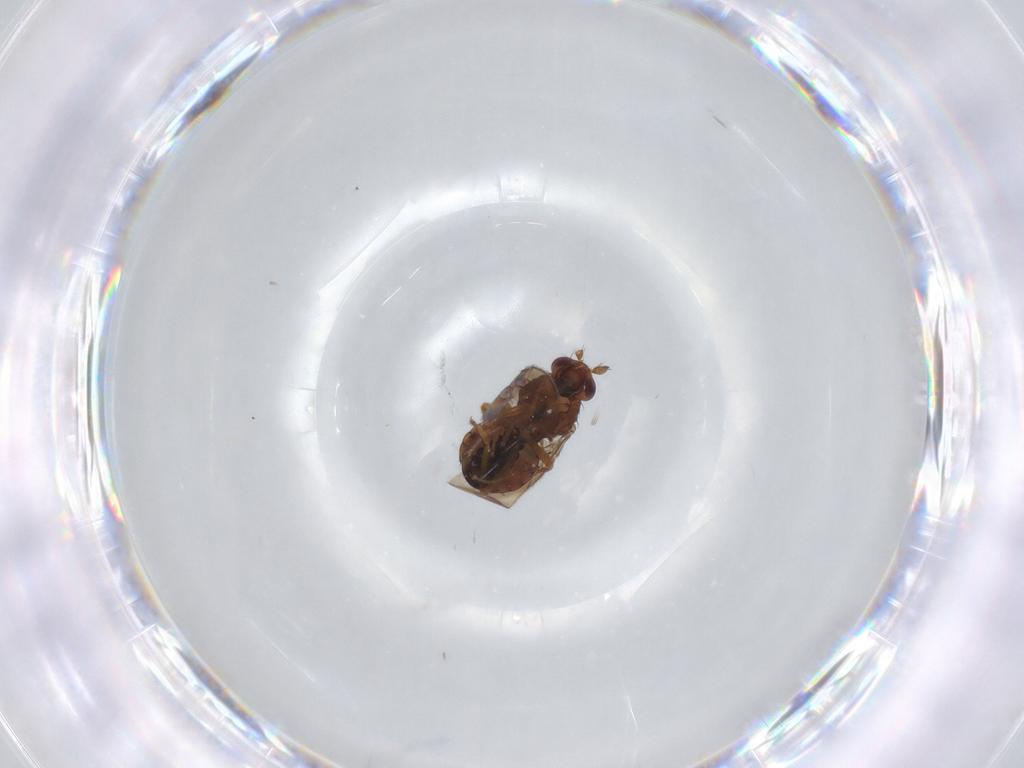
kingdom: Animalia
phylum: Arthropoda
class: Insecta
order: Diptera
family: Sphaeroceridae
